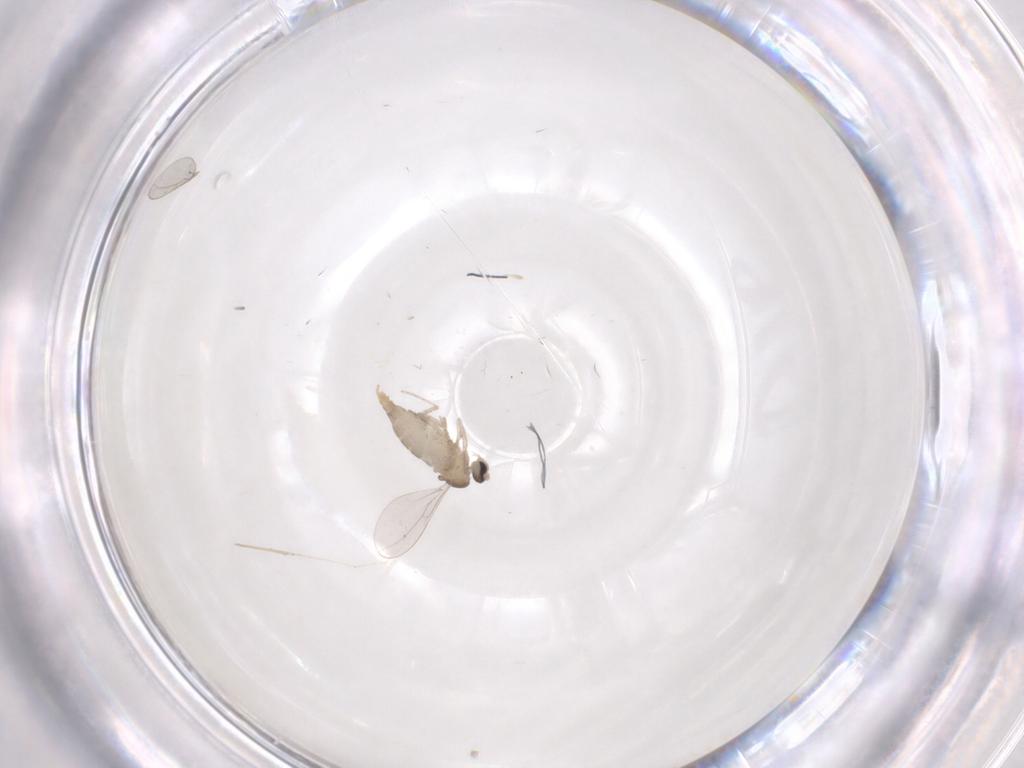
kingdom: Animalia
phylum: Arthropoda
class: Insecta
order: Diptera
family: Cecidomyiidae
